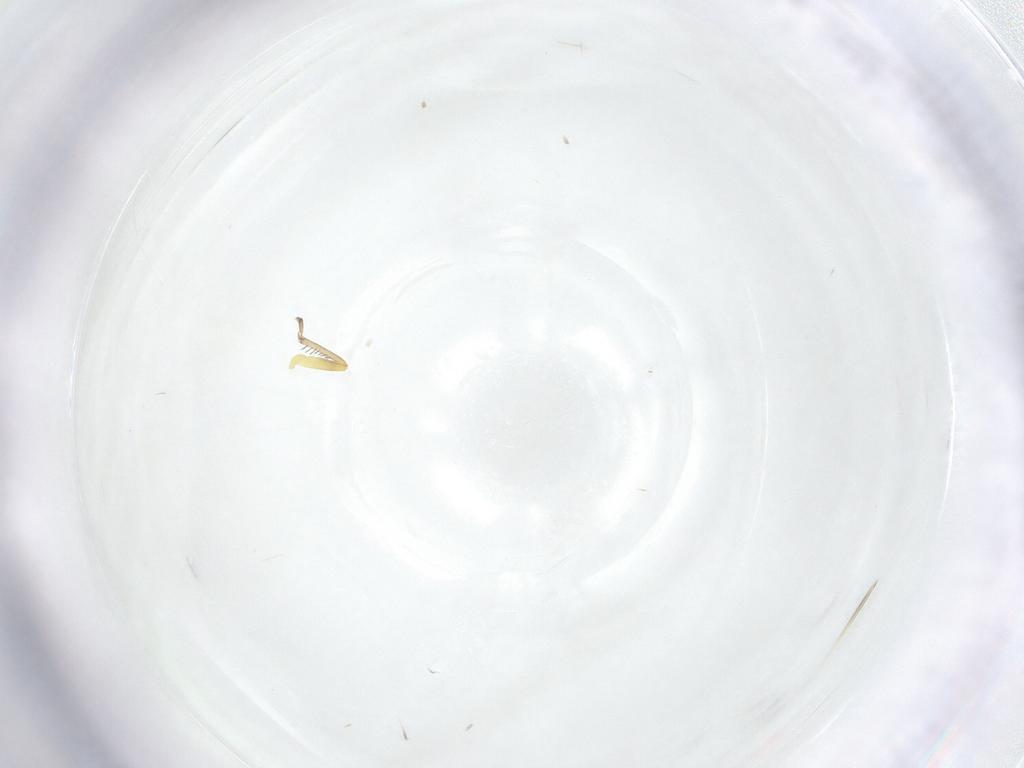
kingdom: Animalia
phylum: Arthropoda
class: Insecta
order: Diptera
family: Sciaridae
